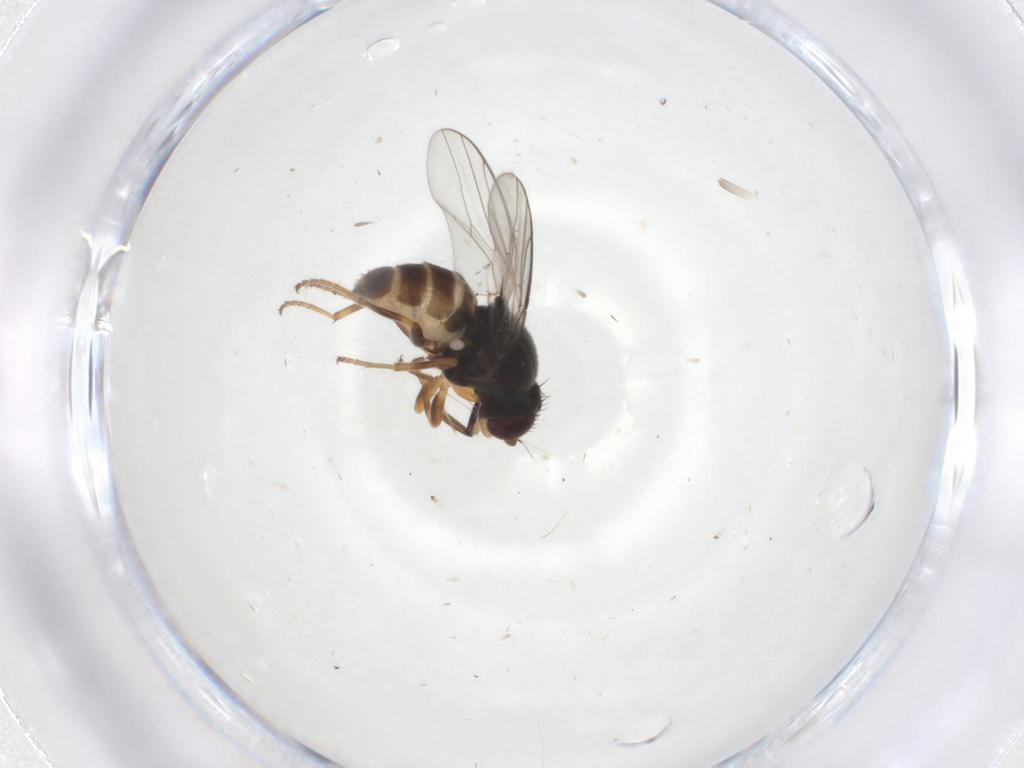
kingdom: Animalia
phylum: Arthropoda
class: Insecta
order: Diptera
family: Chloropidae
